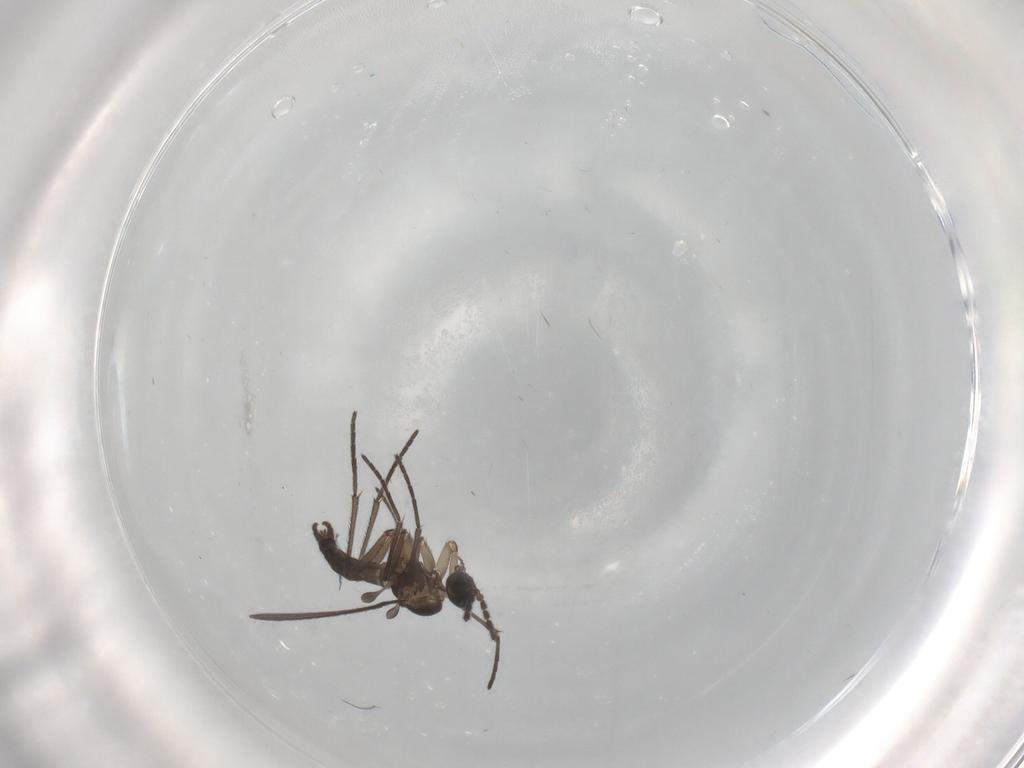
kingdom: Animalia
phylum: Arthropoda
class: Insecta
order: Diptera
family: Sciaridae
